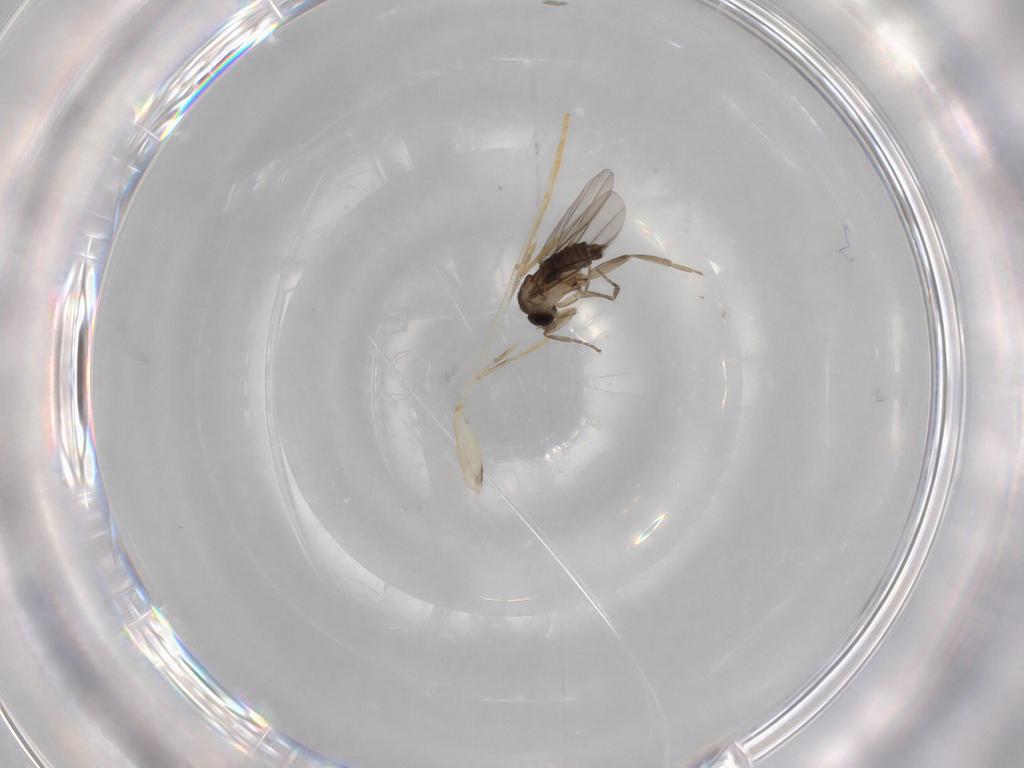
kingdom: Animalia
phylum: Arthropoda
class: Insecta
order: Diptera
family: Phoridae
